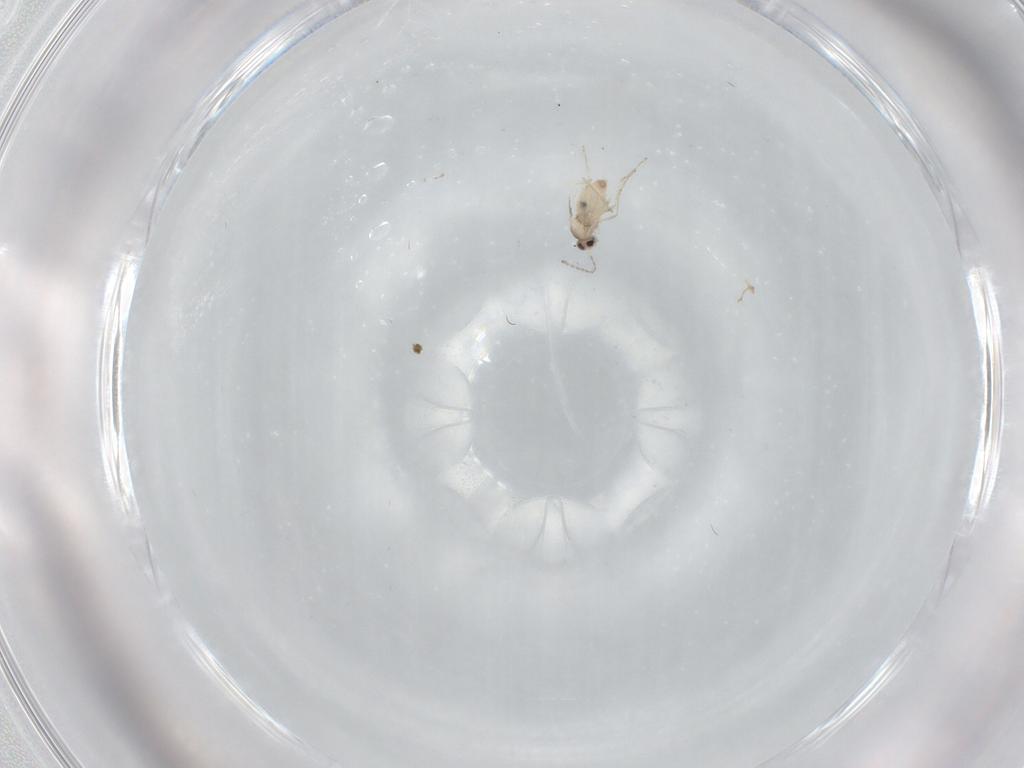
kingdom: Animalia
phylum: Arthropoda
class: Insecta
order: Diptera
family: Cecidomyiidae
